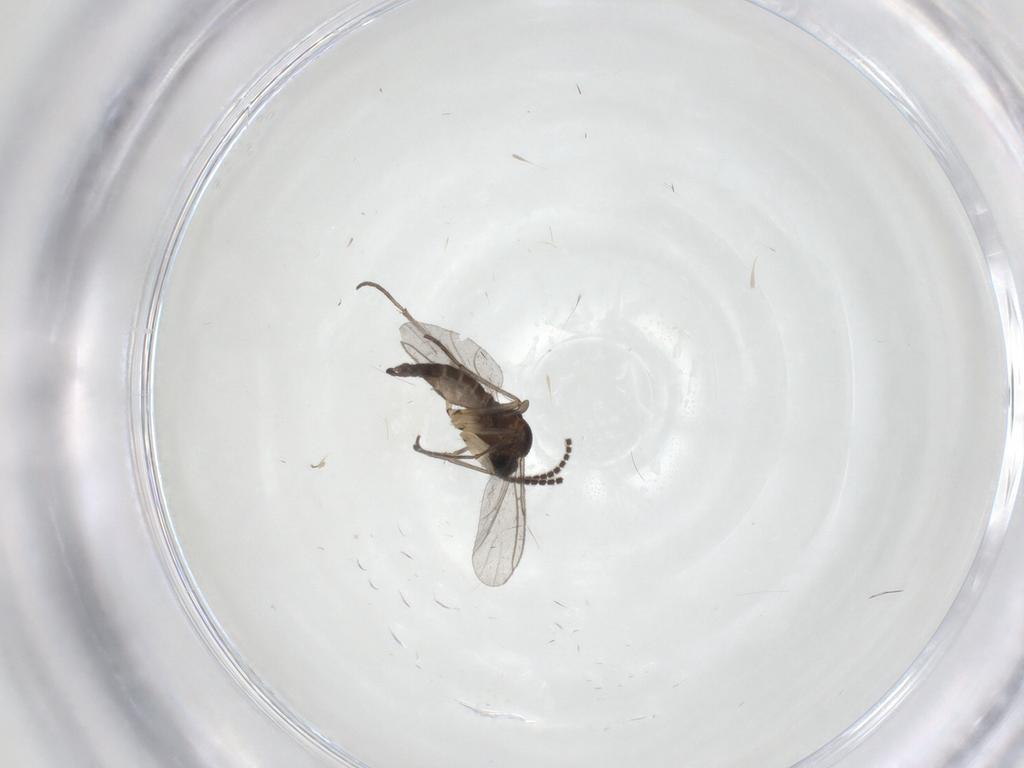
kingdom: Animalia
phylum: Arthropoda
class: Insecta
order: Diptera
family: Sciaridae
